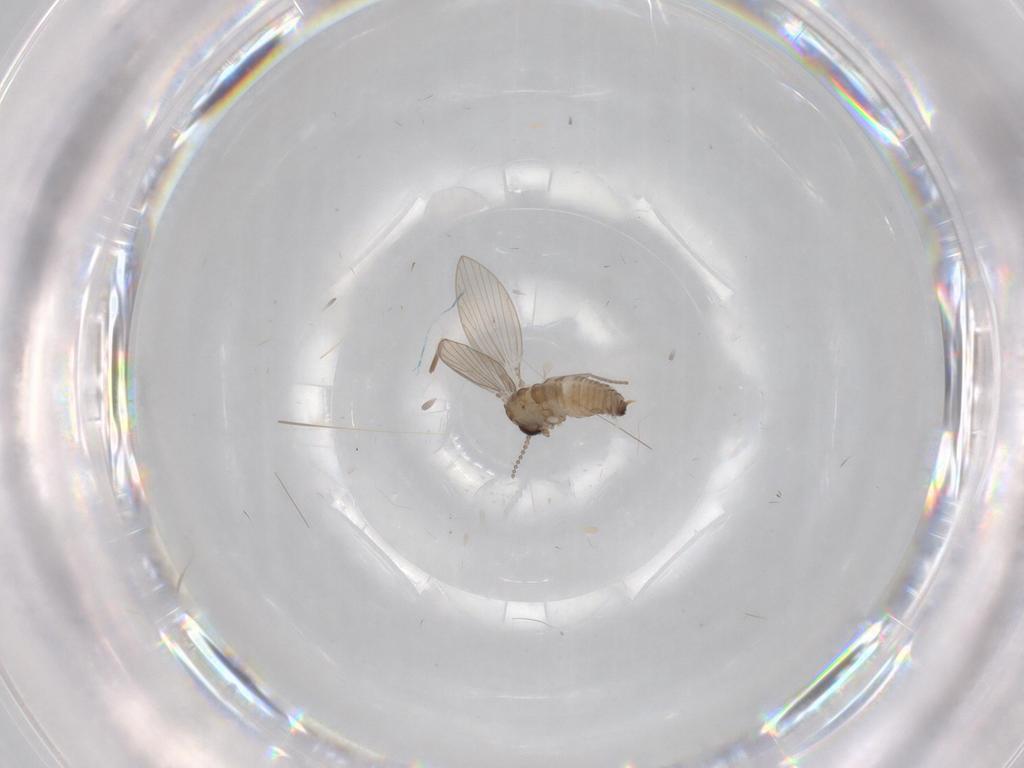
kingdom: Animalia
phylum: Arthropoda
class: Insecta
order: Diptera
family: Psychodidae
